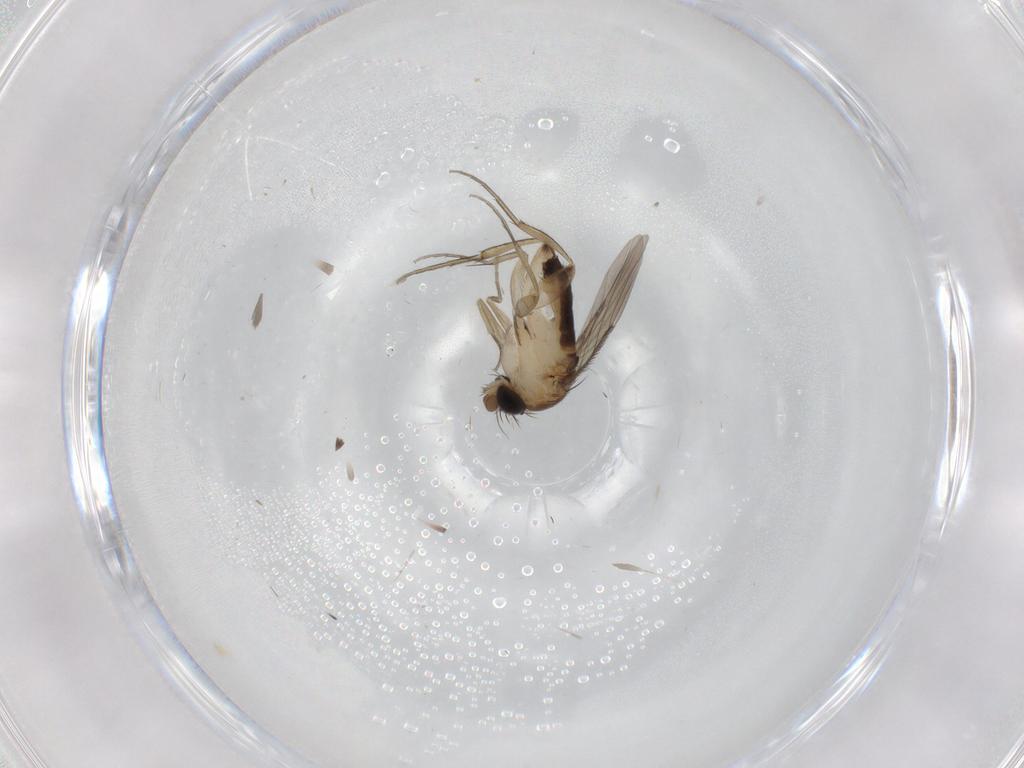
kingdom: Animalia
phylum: Arthropoda
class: Insecta
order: Diptera
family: Phoridae
